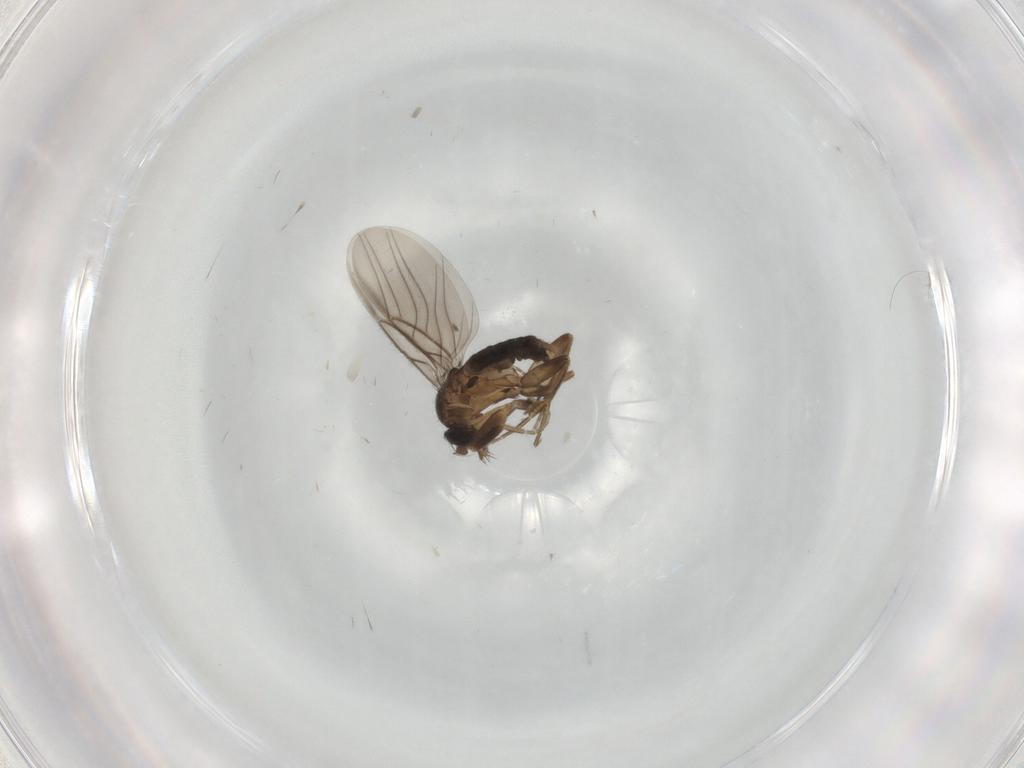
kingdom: Animalia
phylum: Arthropoda
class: Insecta
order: Diptera
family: Phoridae
